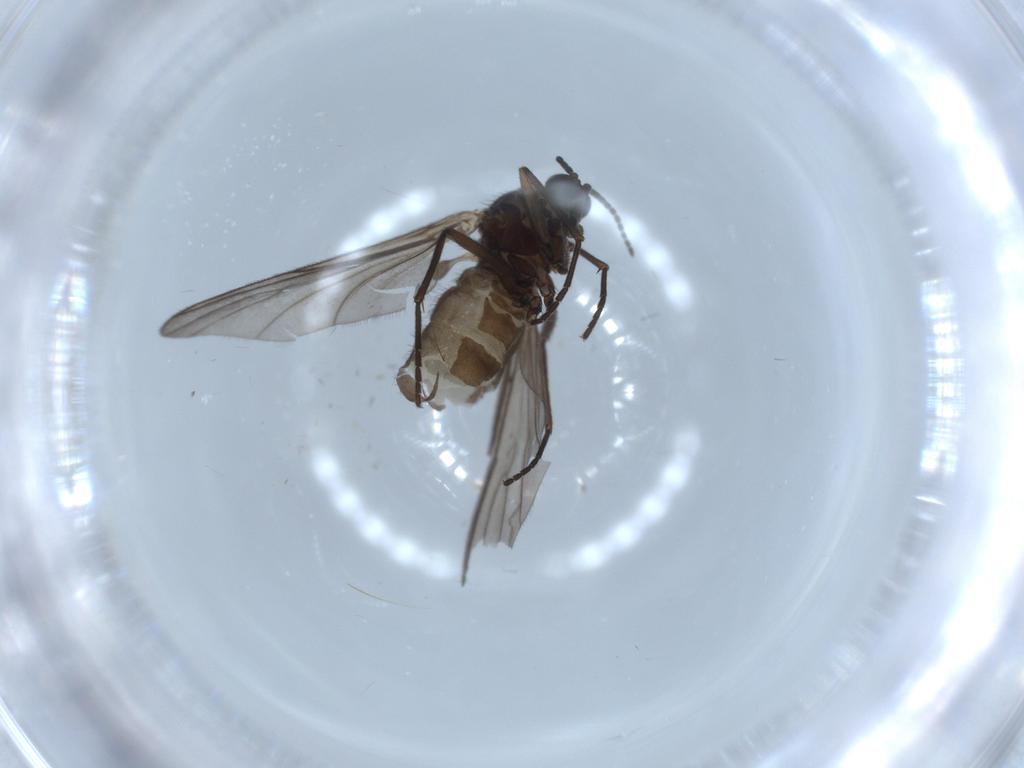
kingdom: Animalia
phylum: Arthropoda
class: Insecta
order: Diptera
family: Sciaridae
